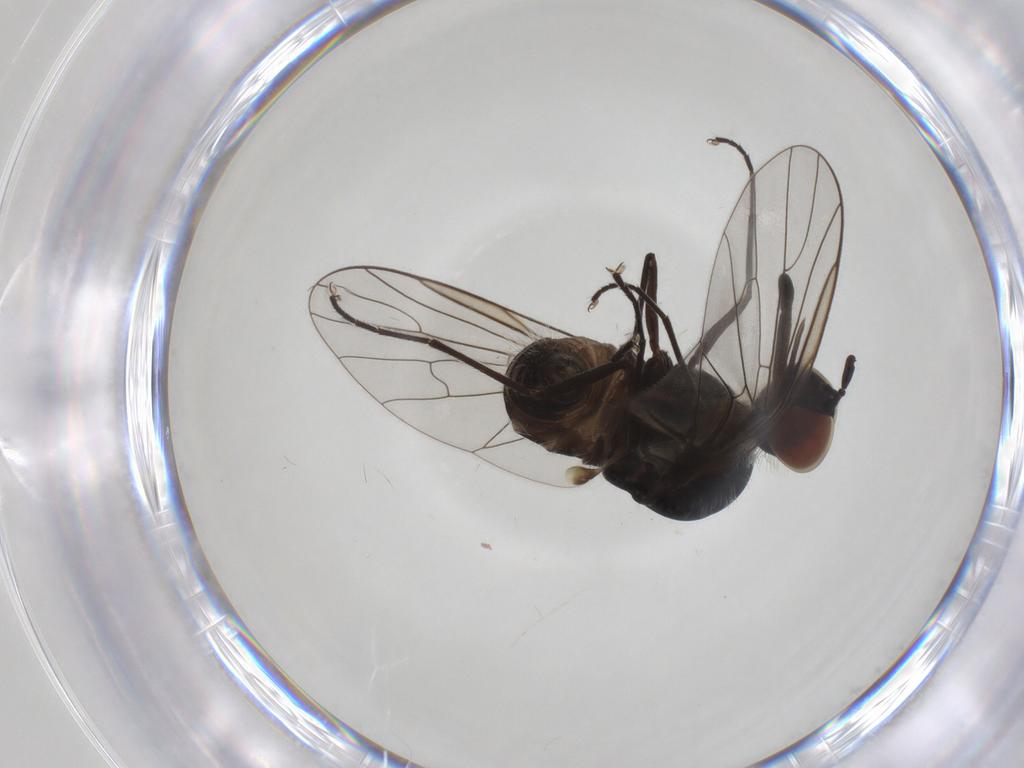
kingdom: Animalia
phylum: Arthropoda
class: Insecta
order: Diptera
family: Bombyliidae
